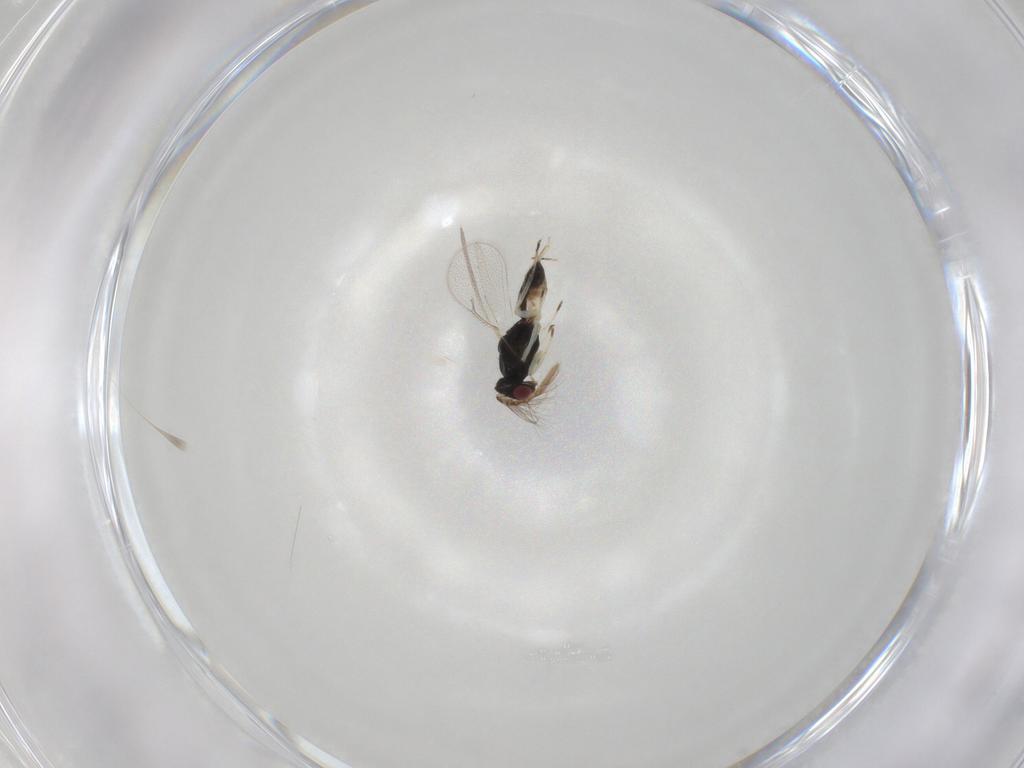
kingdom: Animalia
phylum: Arthropoda
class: Insecta
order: Hymenoptera
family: Eulophidae
